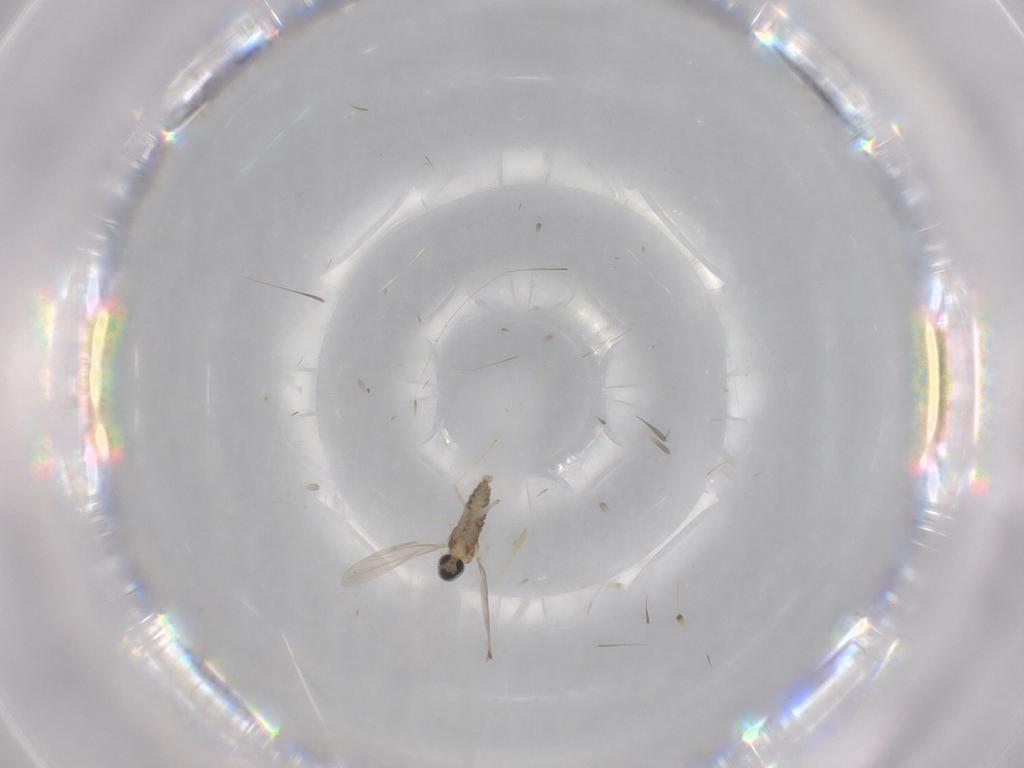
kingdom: Animalia
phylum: Arthropoda
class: Insecta
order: Diptera
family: Cecidomyiidae
